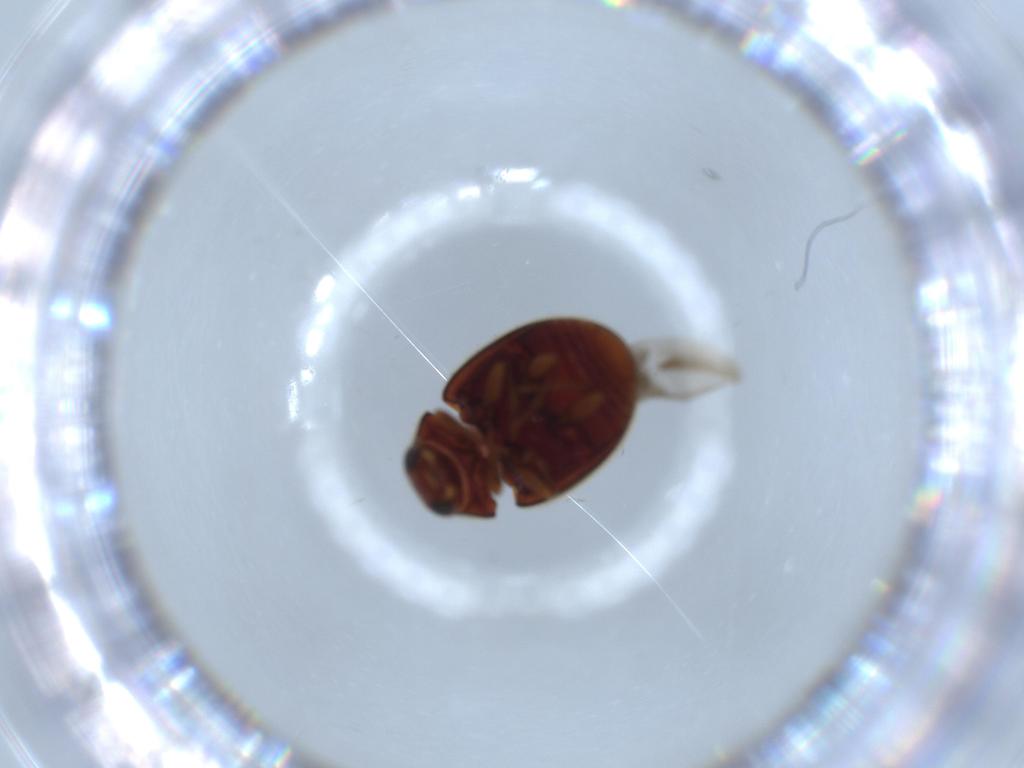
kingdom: Animalia
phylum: Arthropoda
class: Insecta
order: Coleoptera
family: Coccinellidae
